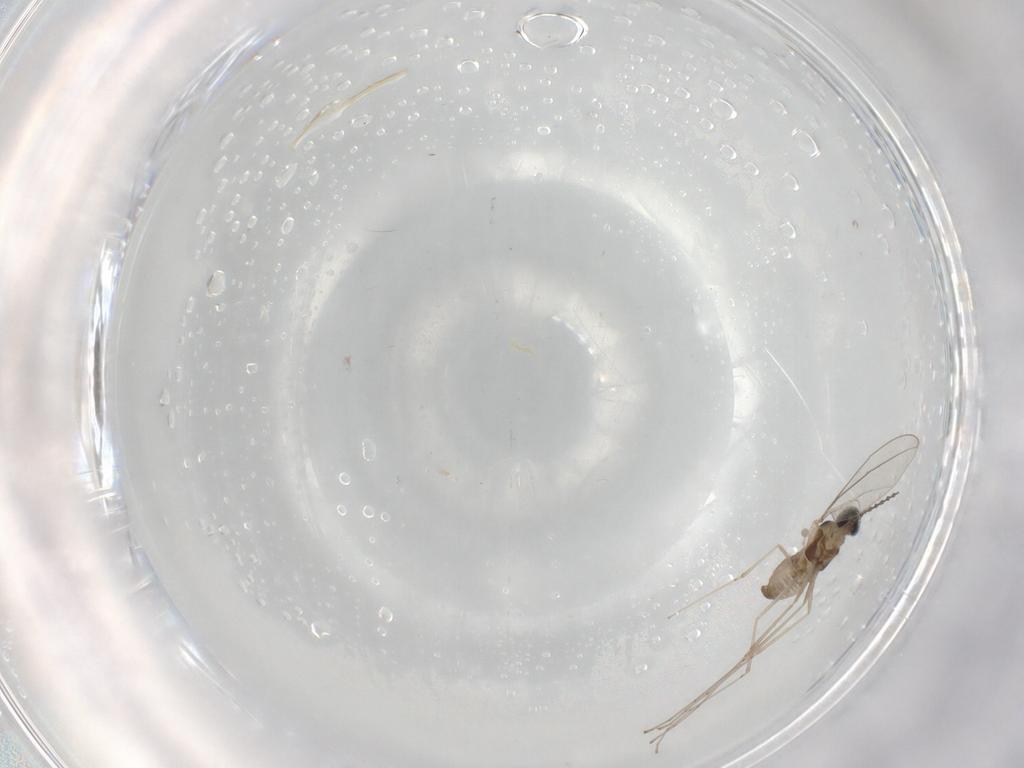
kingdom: Animalia
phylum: Arthropoda
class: Insecta
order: Diptera
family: Cecidomyiidae
